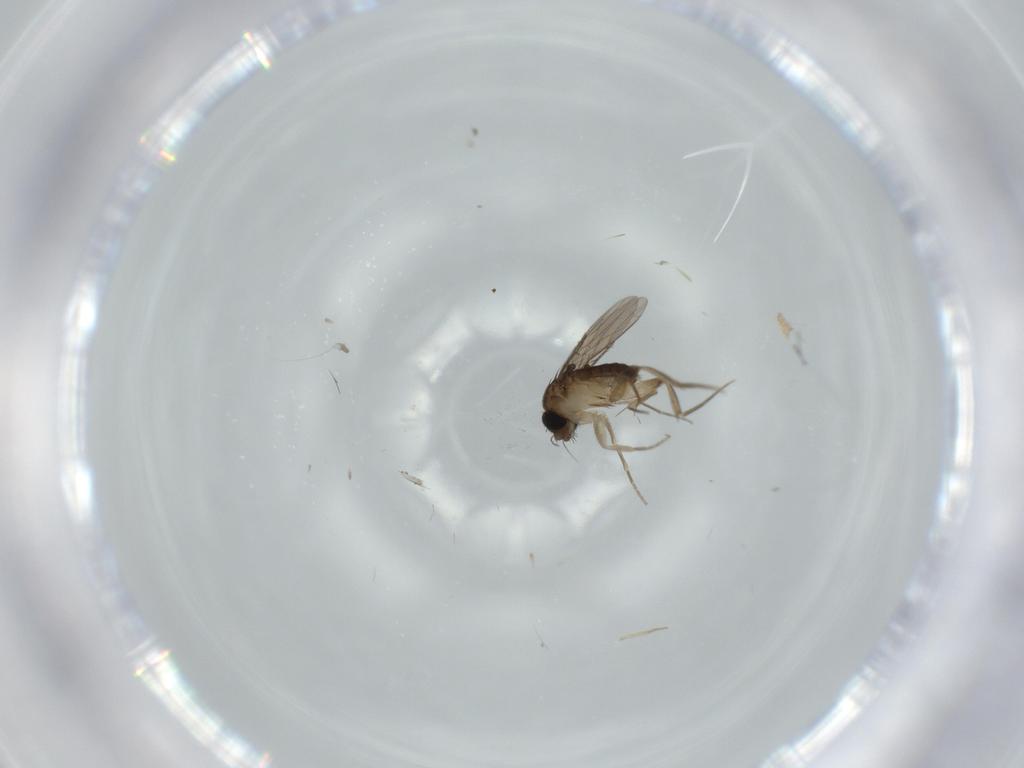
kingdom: Animalia
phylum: Arthropoda
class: Insecta
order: Diptera
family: Phoridae
